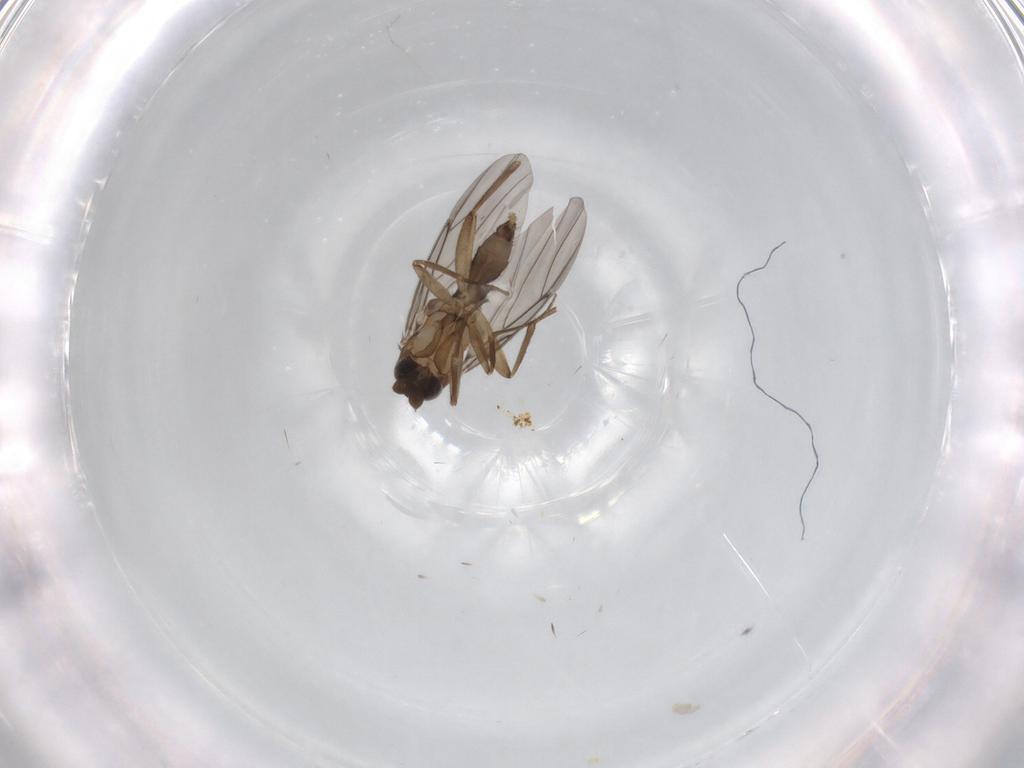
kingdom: Animalia
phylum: Arthropoda
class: Insecta
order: Diptera
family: Phoridae
